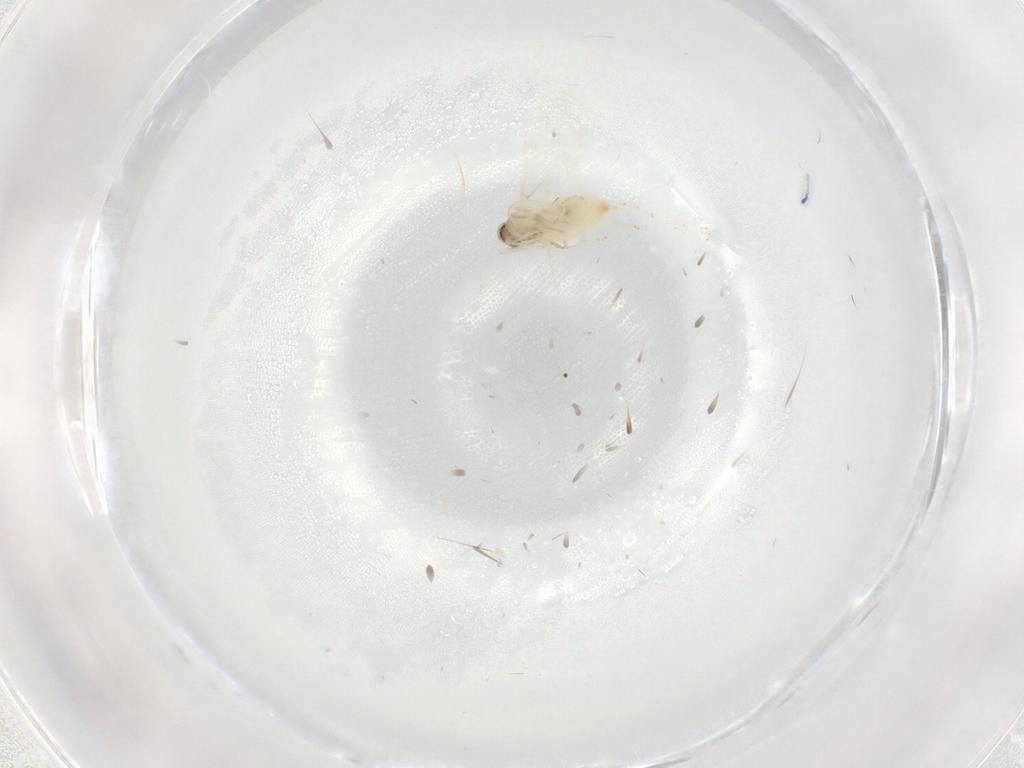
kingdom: Animalia
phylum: Arthropoda
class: Insecta
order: Diptera
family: Cecidomyiidae
